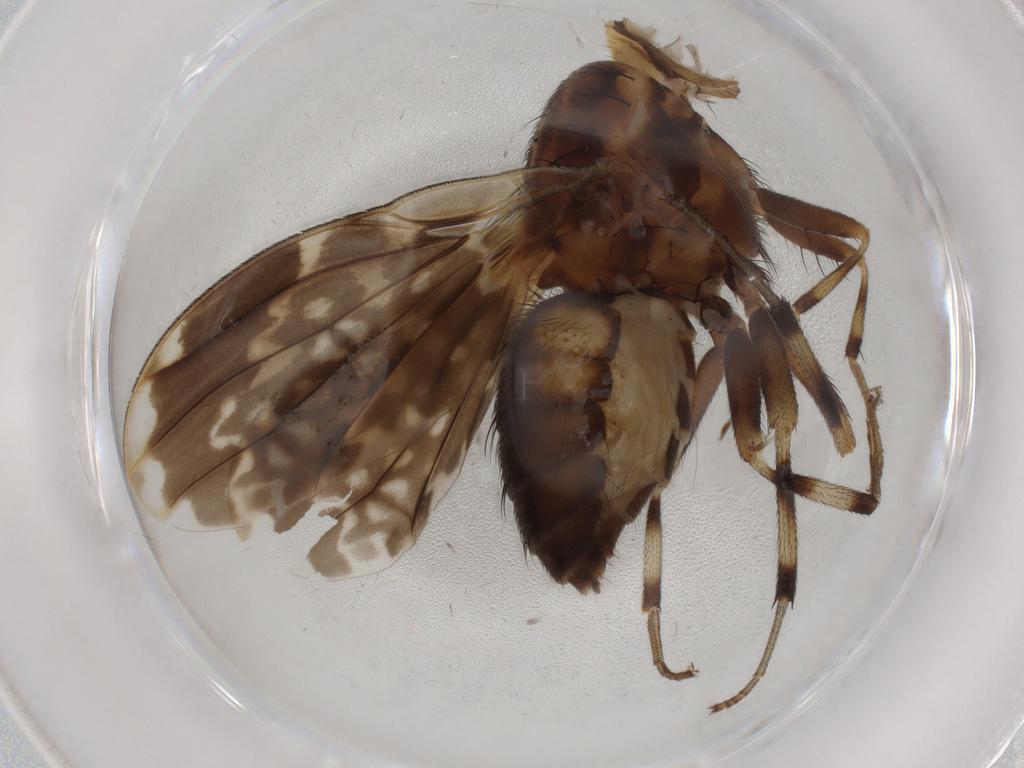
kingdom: Animalia
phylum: Arthropoda
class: Insecta
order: Diptera
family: Lauxaniidae
